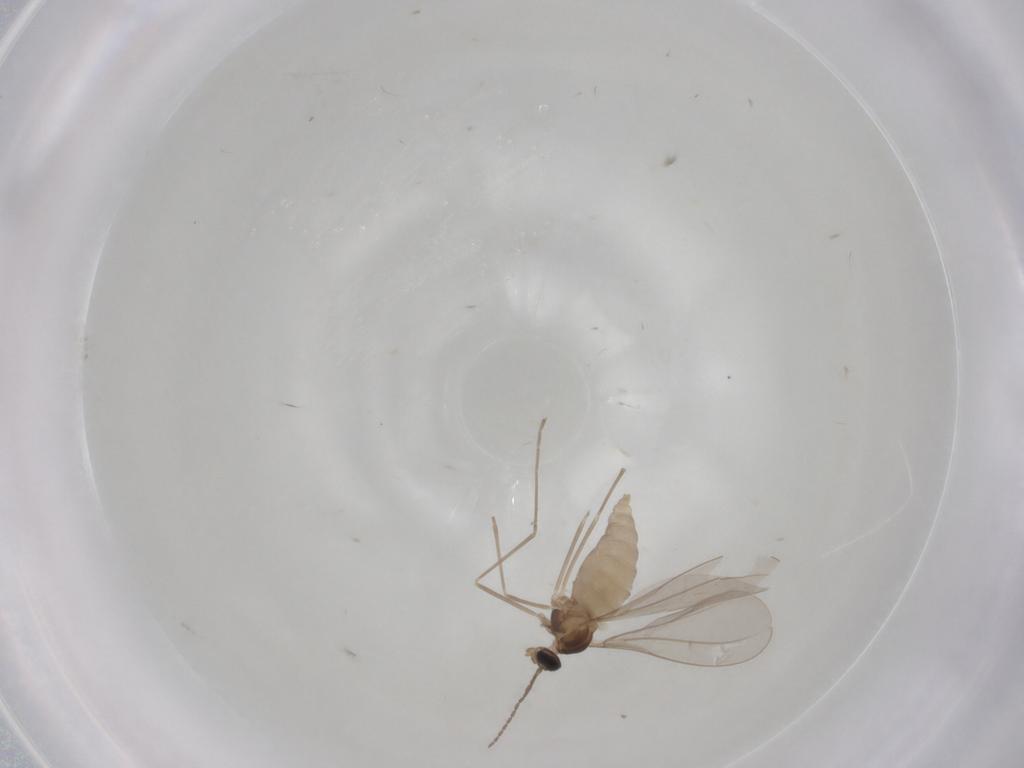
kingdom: Animalia
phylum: Arthropoda
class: Insecta
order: Diptera
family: Cecidomyiidae
